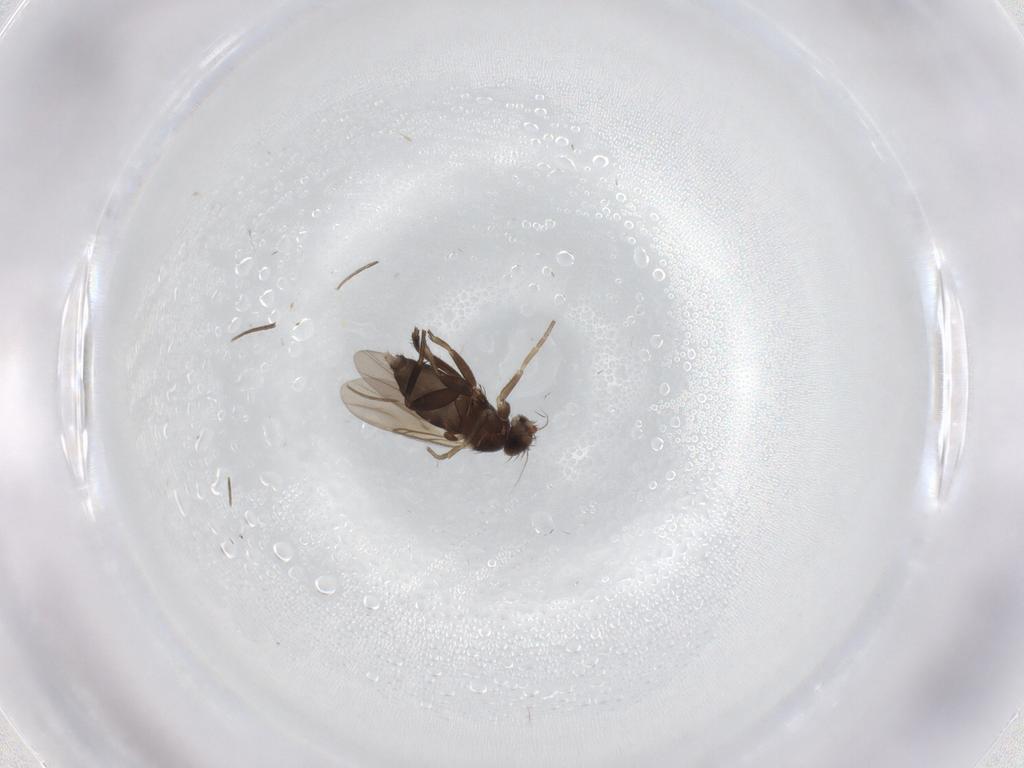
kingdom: Animalia
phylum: Arthropoda
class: Insecta
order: Diptera
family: Phoridae
